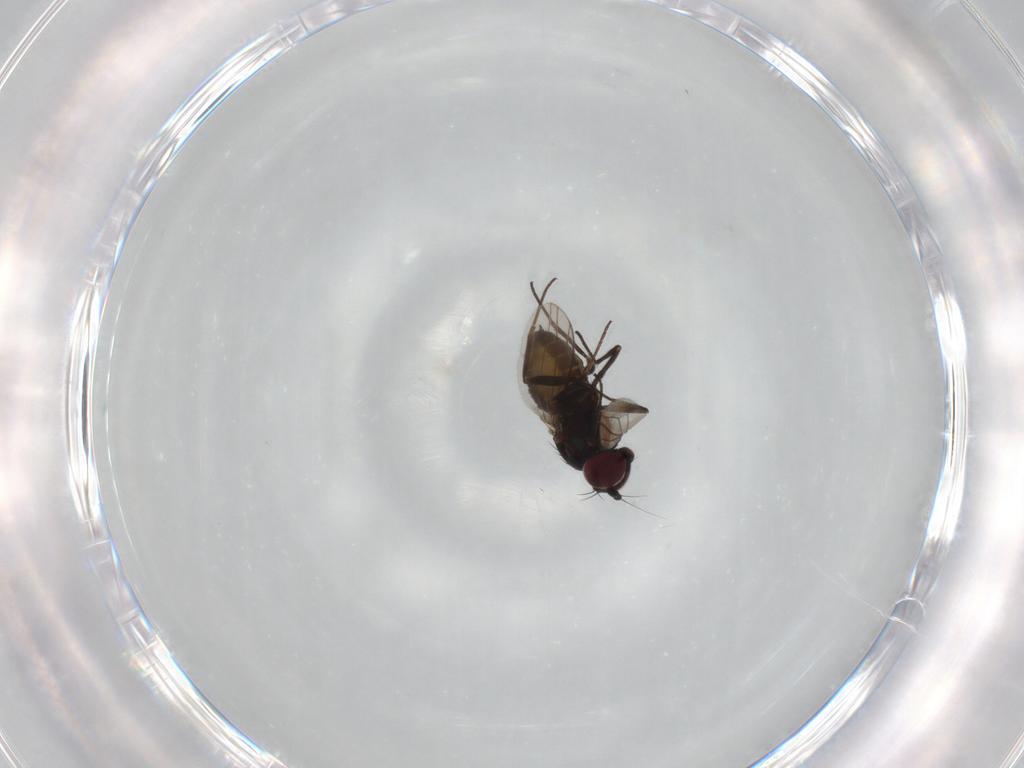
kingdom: Animalia
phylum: Arthropoda
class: Insecta
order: Diptera
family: Dolichopodidae
